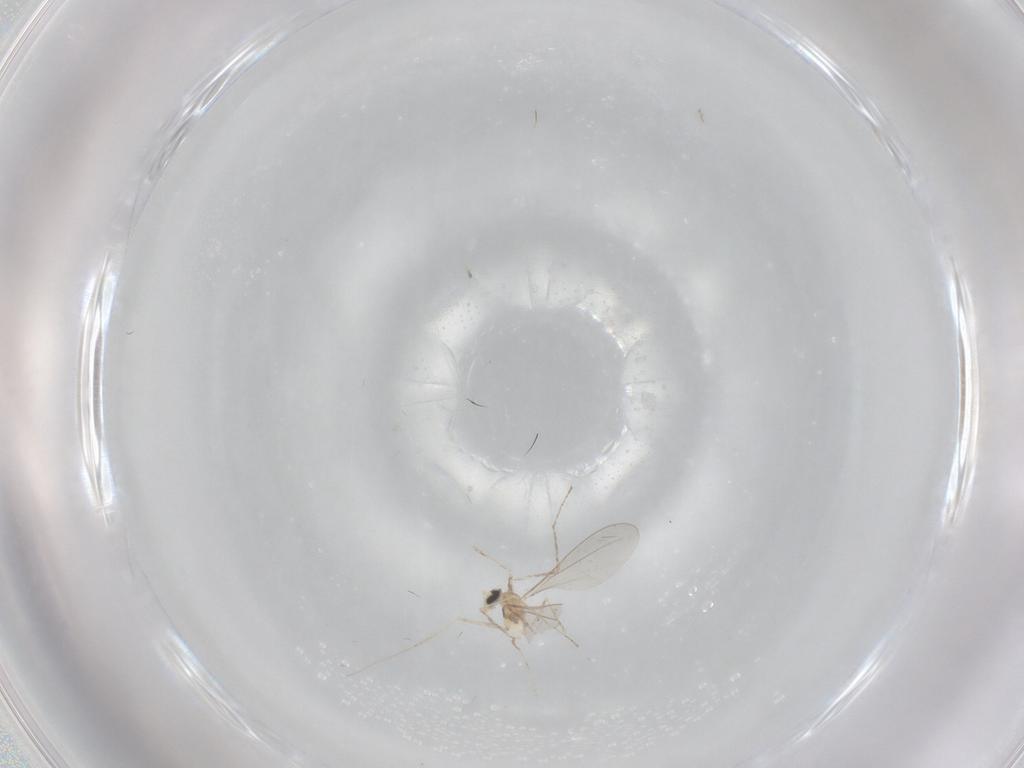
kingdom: Animalia
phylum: Arthropoda
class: Insecta
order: Diptera
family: Cecidomyiidae
